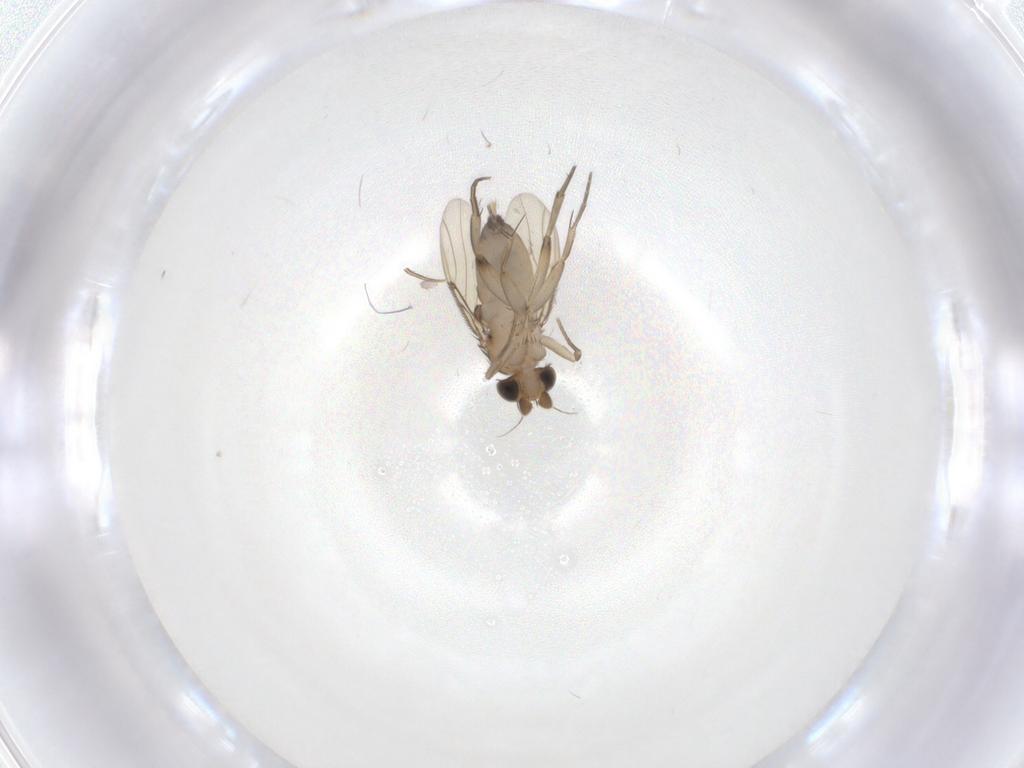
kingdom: Animalia
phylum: Arthropoda
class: Insecta
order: Diptera
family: Phoridae
